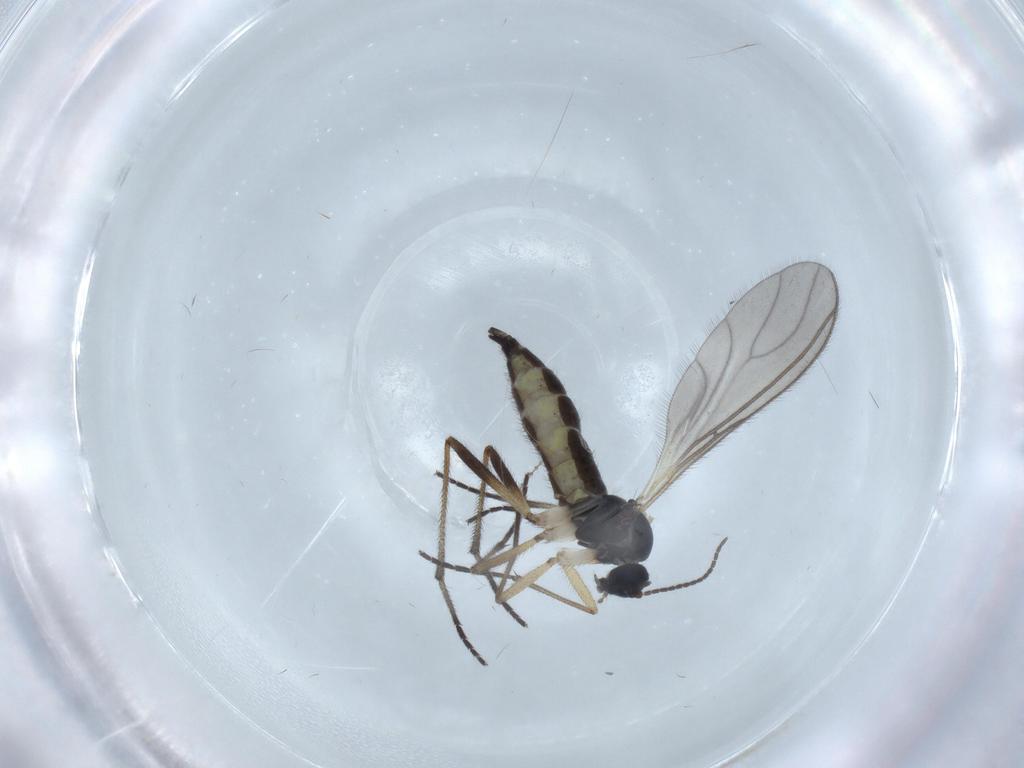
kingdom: Animalia
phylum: Arthropoda
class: Insecta
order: Diptera
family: Sciaridae
